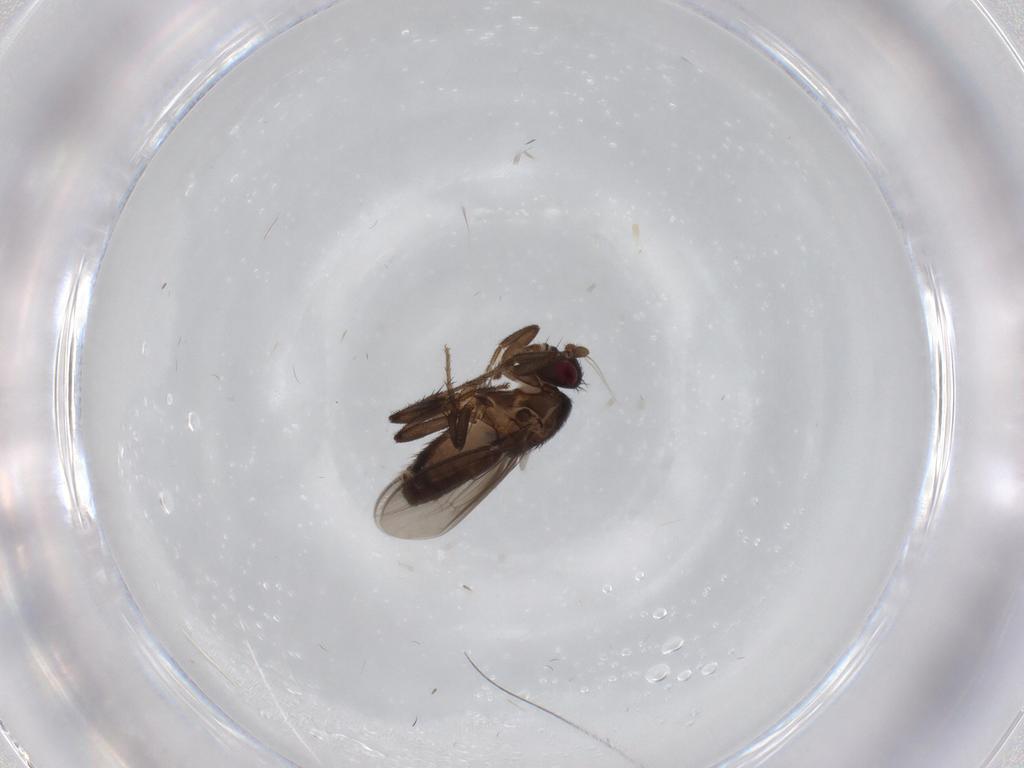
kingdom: Animalia
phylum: Arthropoda
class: Insecta
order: Diptera
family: Sphaeroceridae
